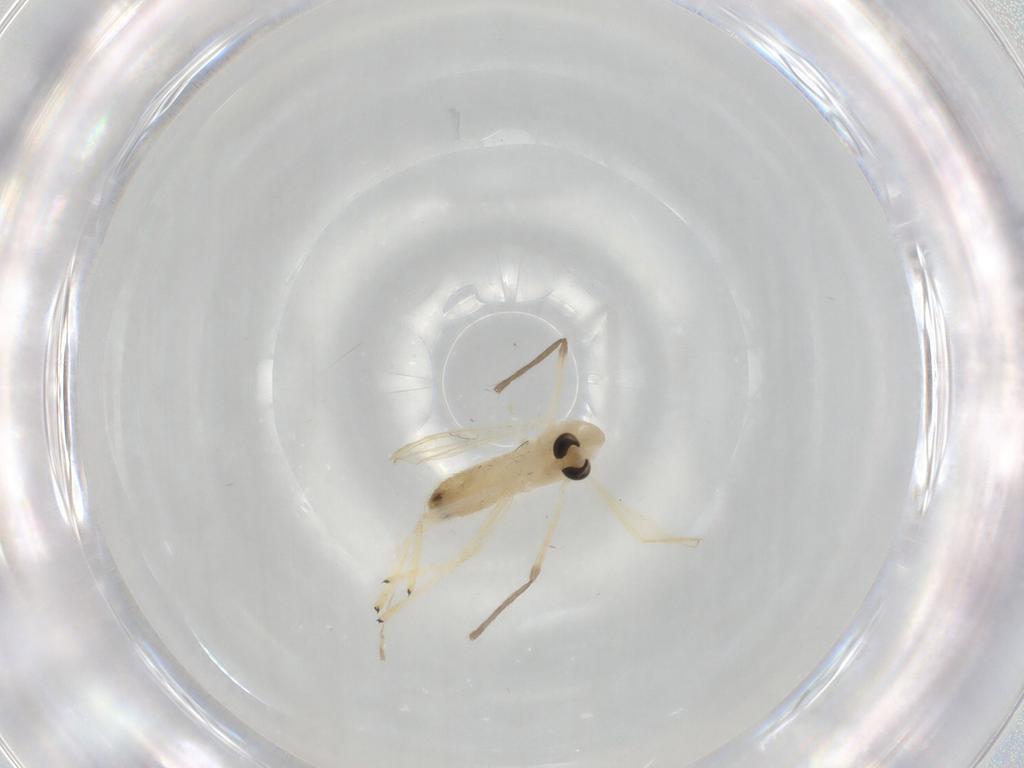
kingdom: Animalia
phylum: Arthropoda
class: Insecta
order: Diptera
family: Chironomidae
